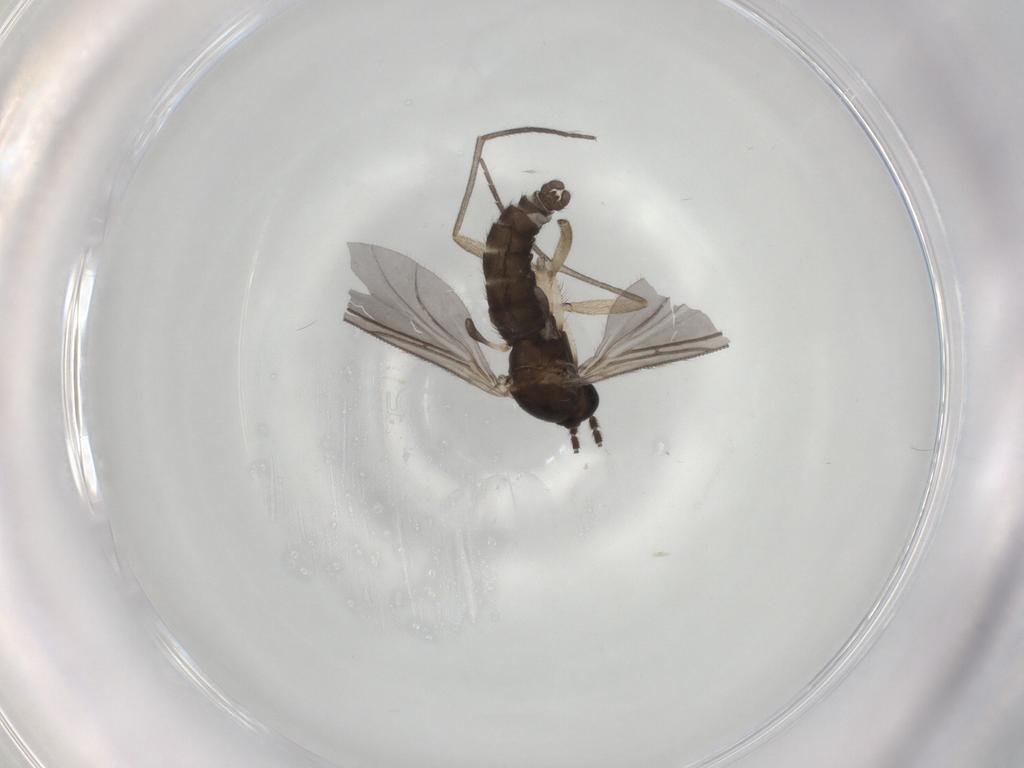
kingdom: Animalia
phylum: Arthropoda
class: Insecta
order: Diptera
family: Sciaridae
